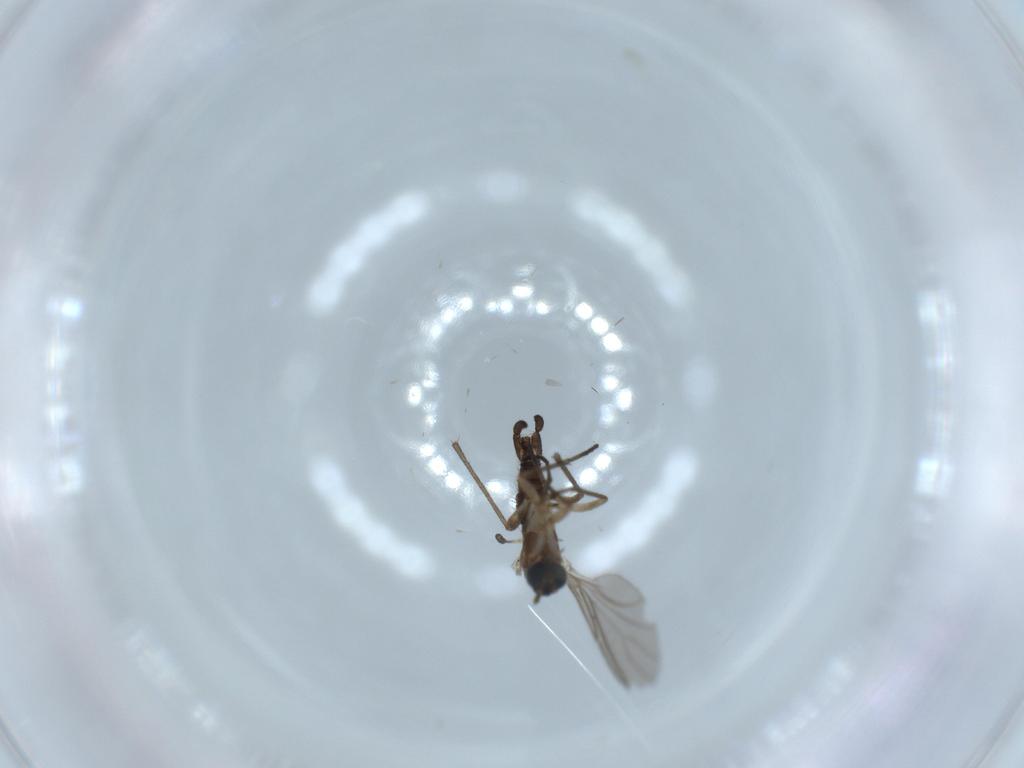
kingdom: Animalia
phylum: Arthropoda
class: Insecta
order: Diptera
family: Sciaridae
